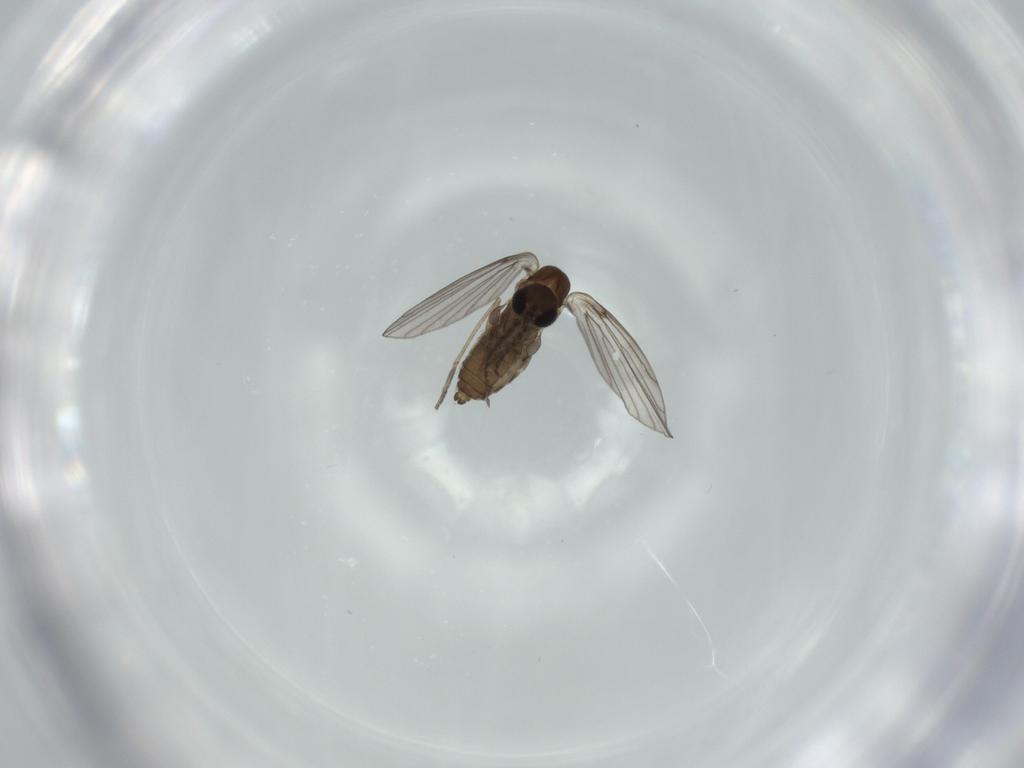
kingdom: Animalia
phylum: Arthropoda
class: Insecta
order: Diptera
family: Psychodidae
